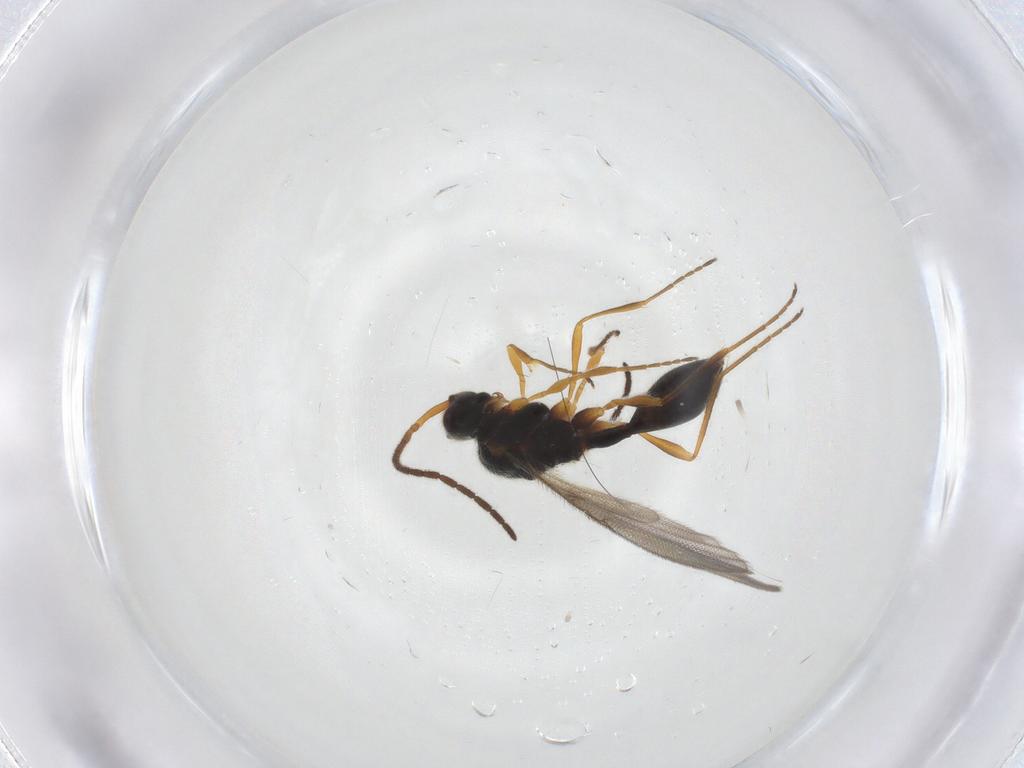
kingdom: Animalia
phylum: Arthropoda
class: Insecta
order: Hymenoptera
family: Diapriidae
